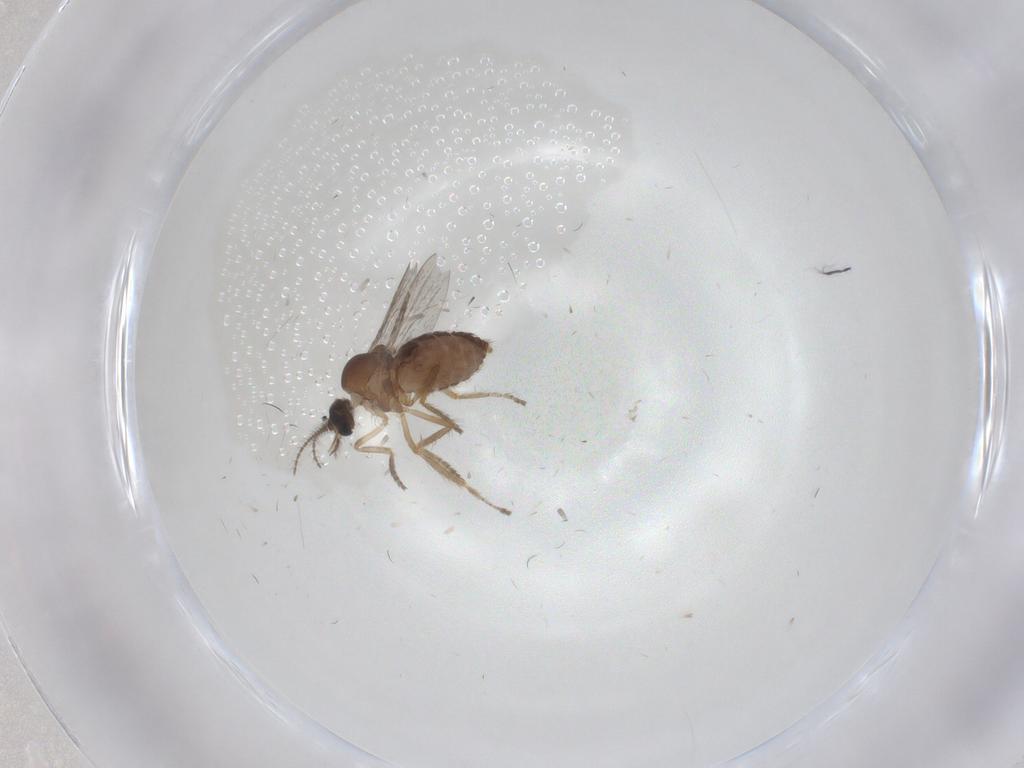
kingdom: Animalia
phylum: Arthropoda
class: Insecta
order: Diptera
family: Ceratopogonidae
